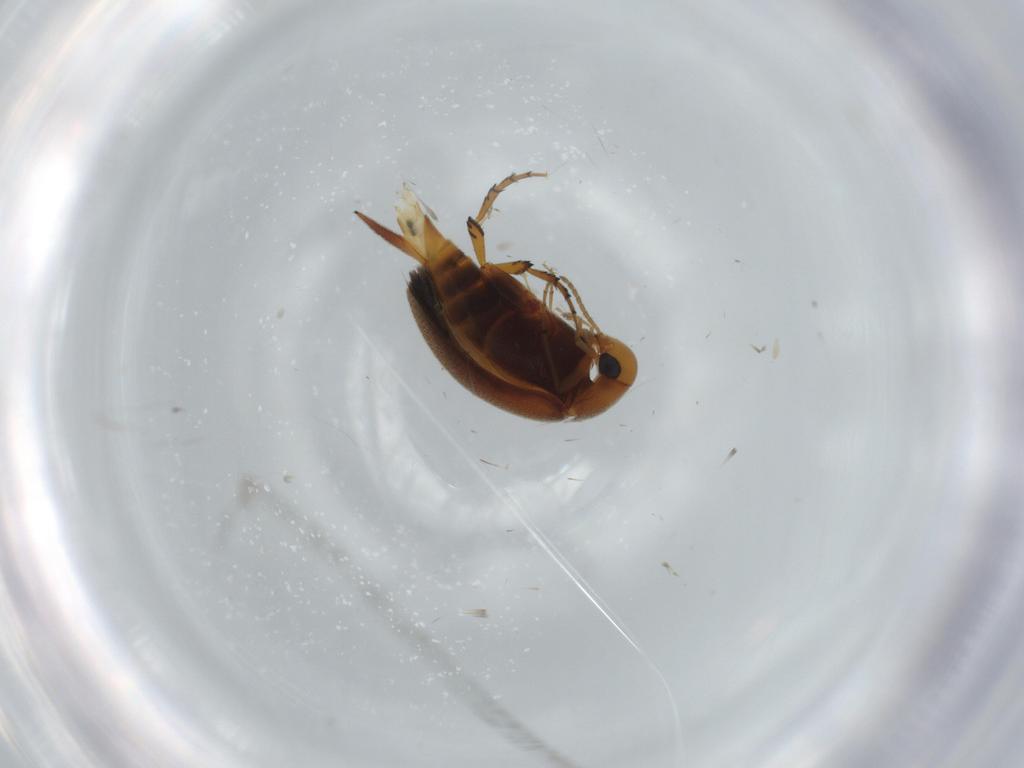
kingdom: Animalia
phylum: Arthropoda
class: Insecta
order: Coleoptera
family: Mordellidae
